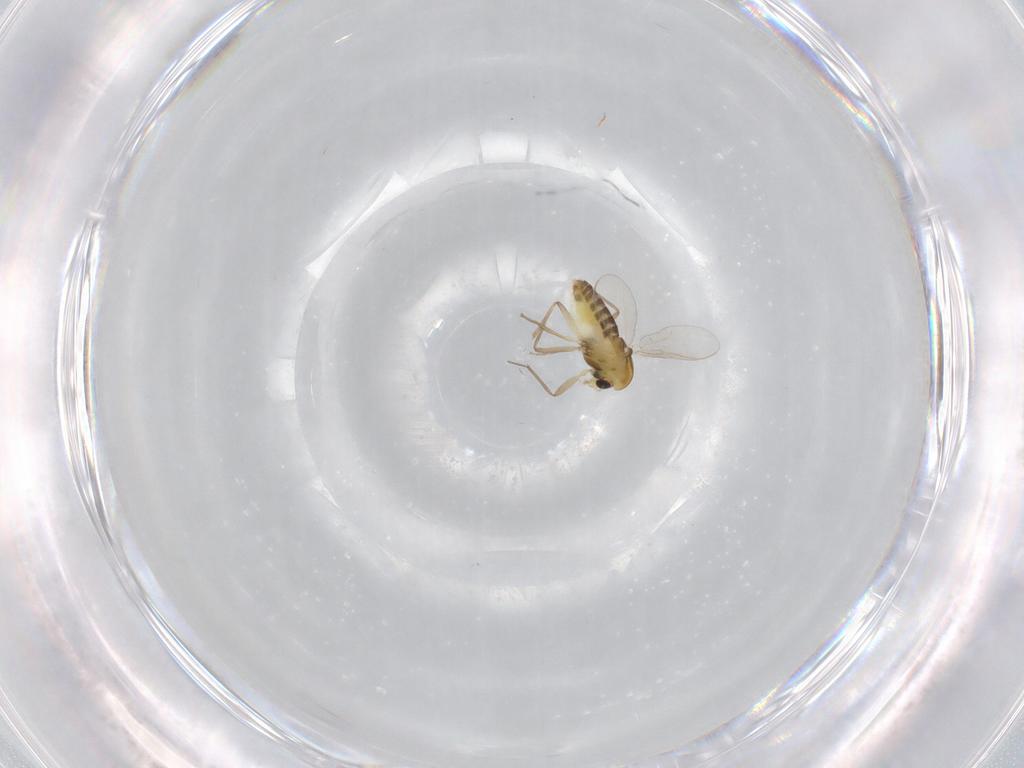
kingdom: Animalia
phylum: Arthropoda
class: Insecta
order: Diptera
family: Chironomidae
